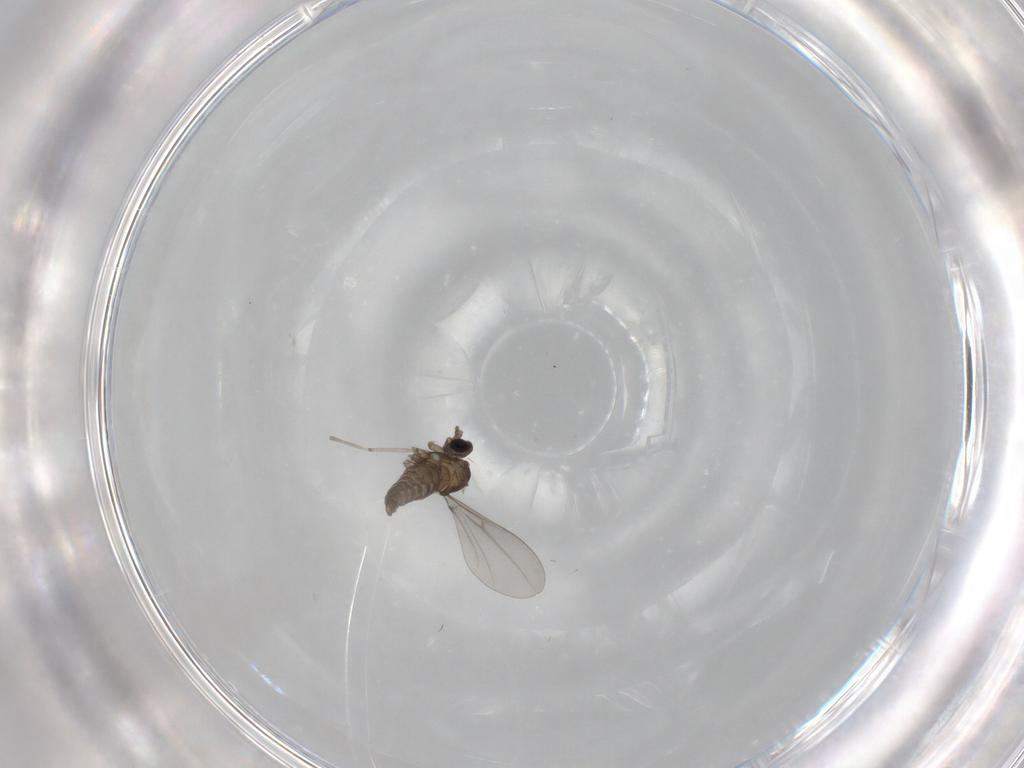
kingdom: Animalia
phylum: Arthropoda
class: Insecta
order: Diptera
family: Cecidomyiidae
